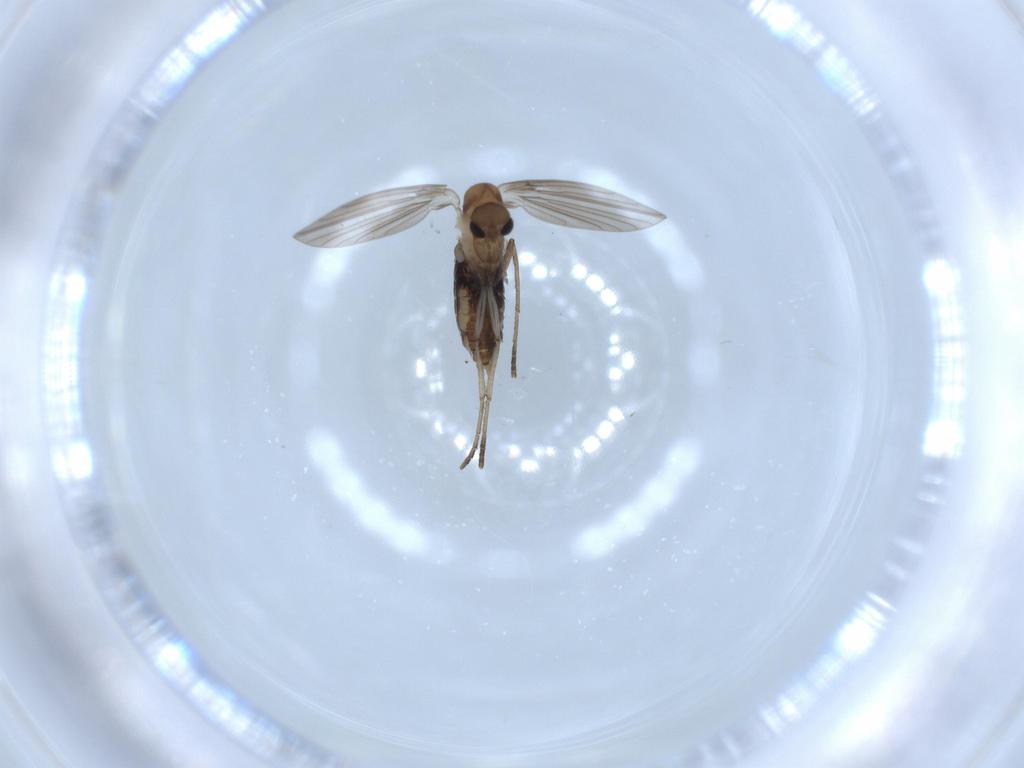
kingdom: Animalia
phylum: Arthropoda
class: Insecta
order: Diptera
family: Psychodidae
